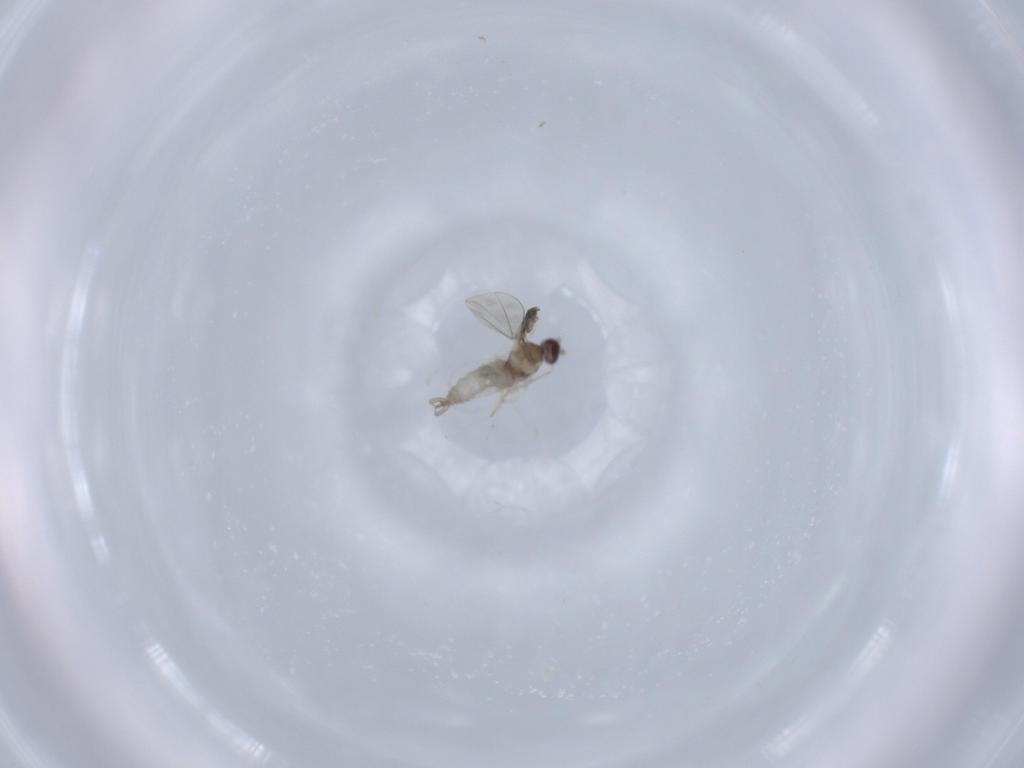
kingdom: Animalia
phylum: Arthropoda
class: Insecta
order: Diptera
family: Cecidomyiidae
